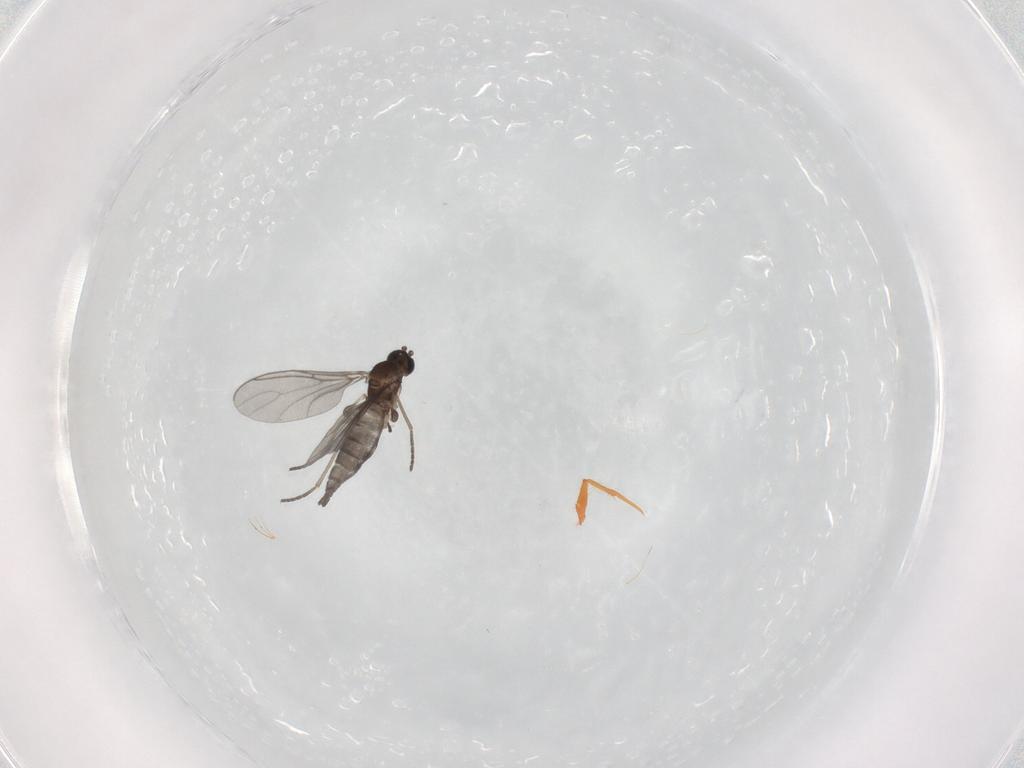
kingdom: Animalia
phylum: Arthropoda
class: Insecta
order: Diptera
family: Sciaridae
